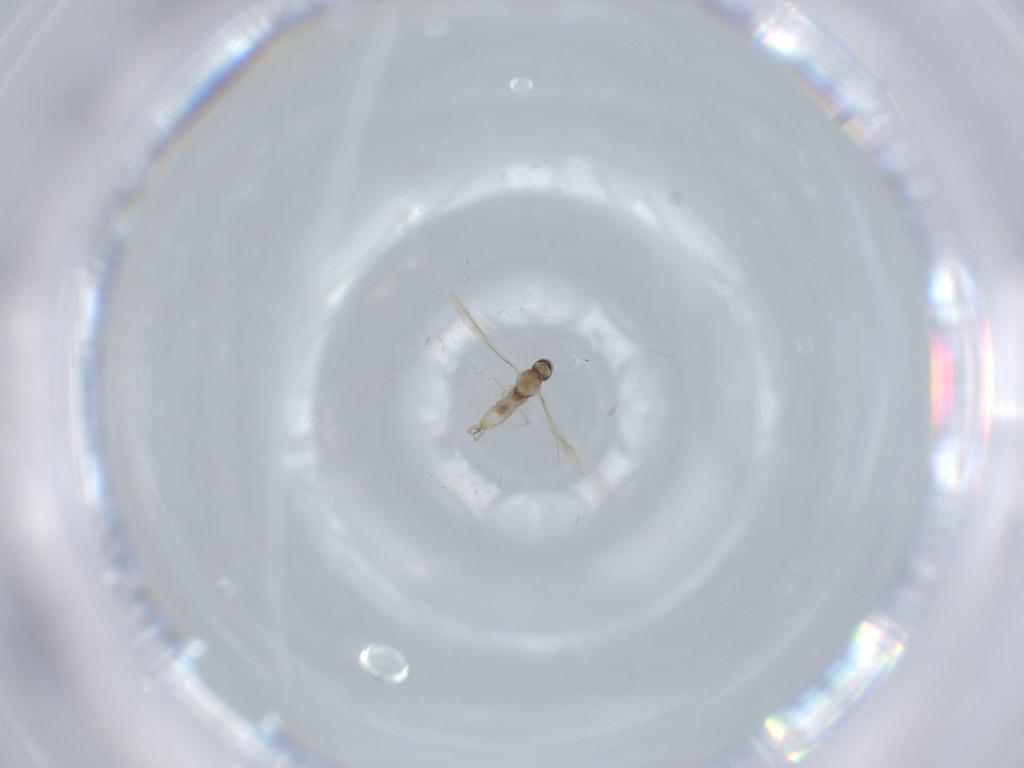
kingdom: Animalia
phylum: Arthropoda
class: Insecta
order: Diptera
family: Cecidomyiidae
